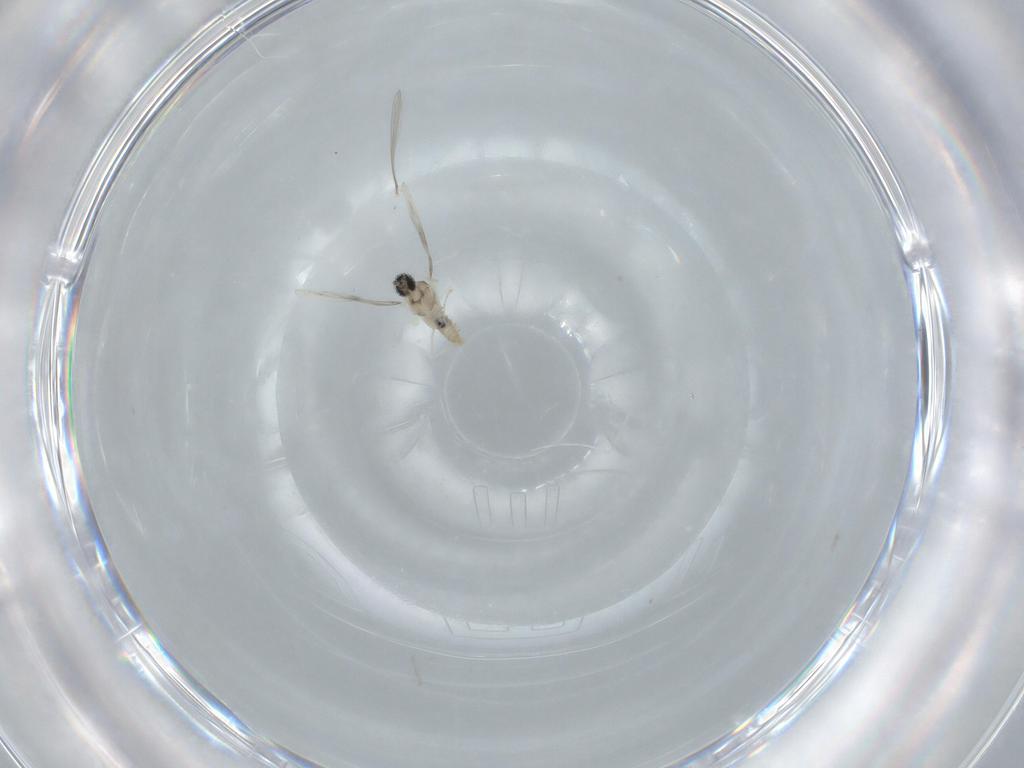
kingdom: Animalia
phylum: Arthropoda
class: Insecta
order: Diptera
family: Cecidomyiidae
